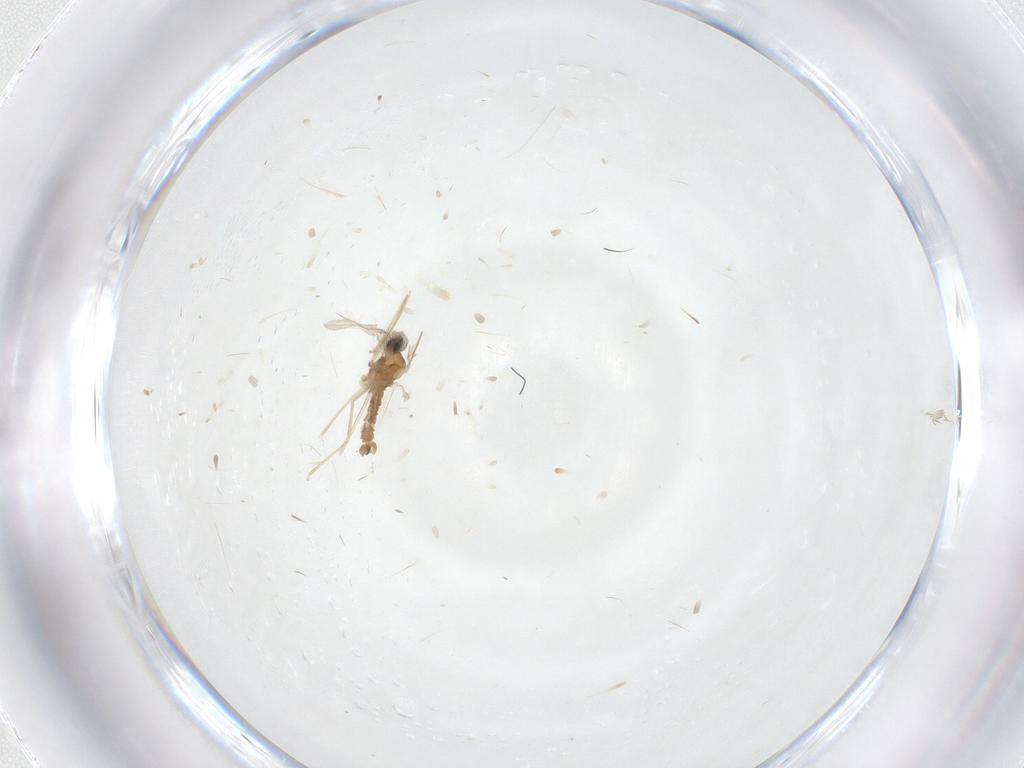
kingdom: Animalia
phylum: Arthropoda
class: Insecta
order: Diptera
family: Cecidomyiidae
